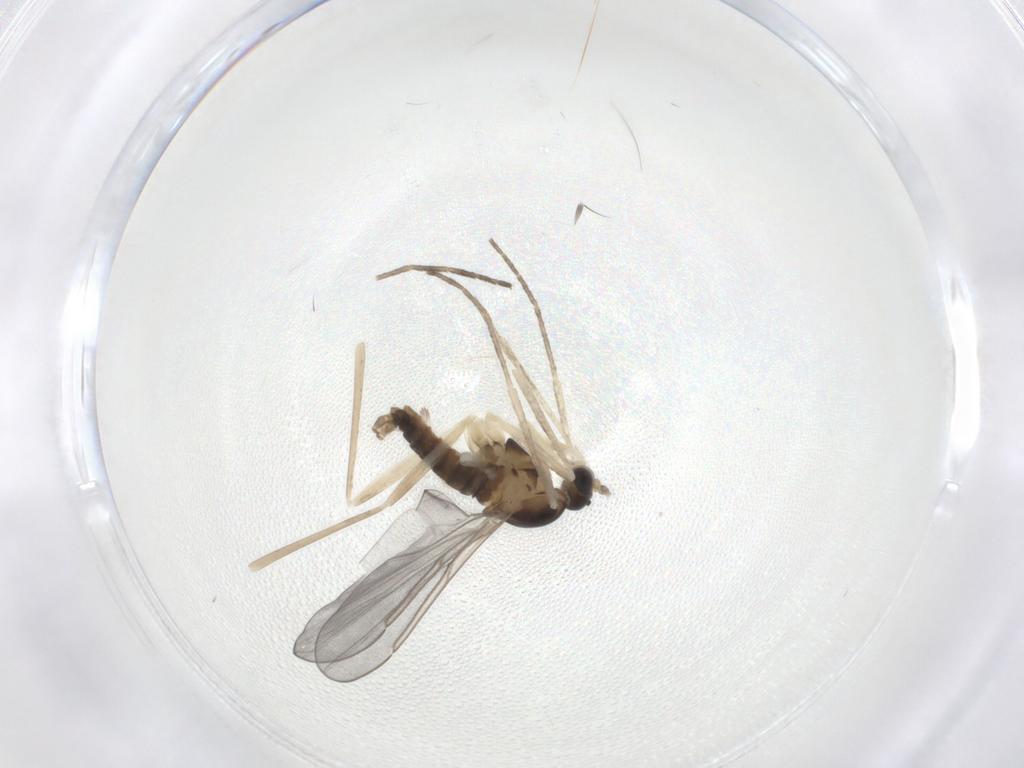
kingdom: Animalia
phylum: Arthropoda
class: Insecta
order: Diptera
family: Cecidomyiidae
